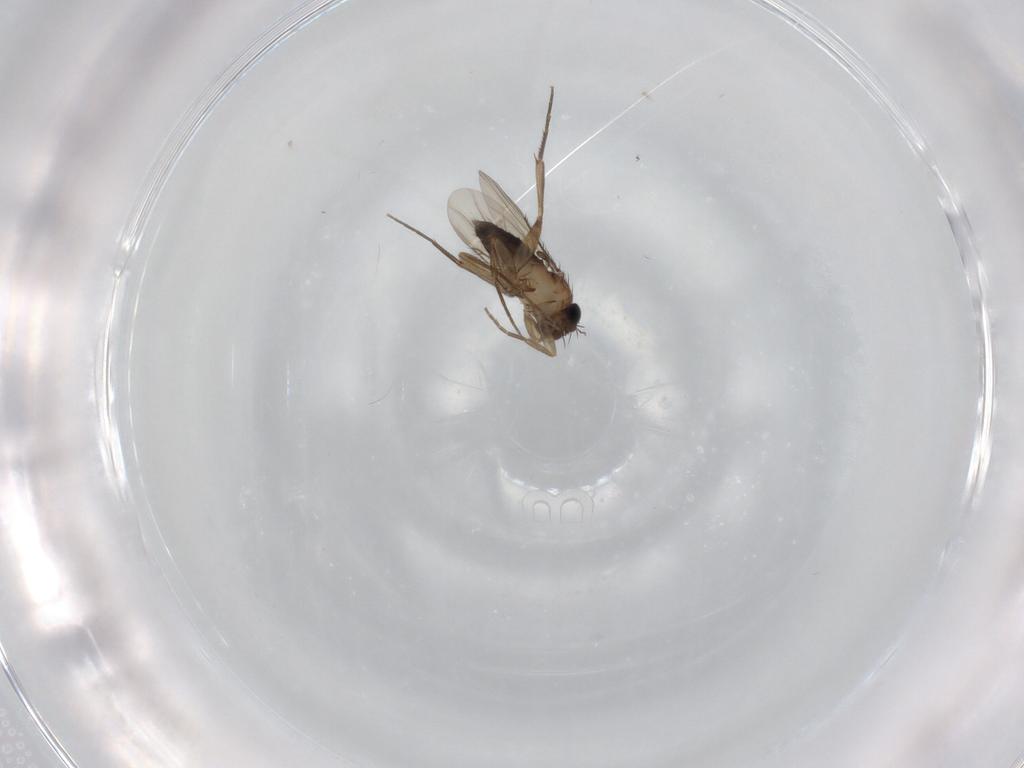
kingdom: Animalia
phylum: Arthropoda
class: Insecta
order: Diptera
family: Phoridae
